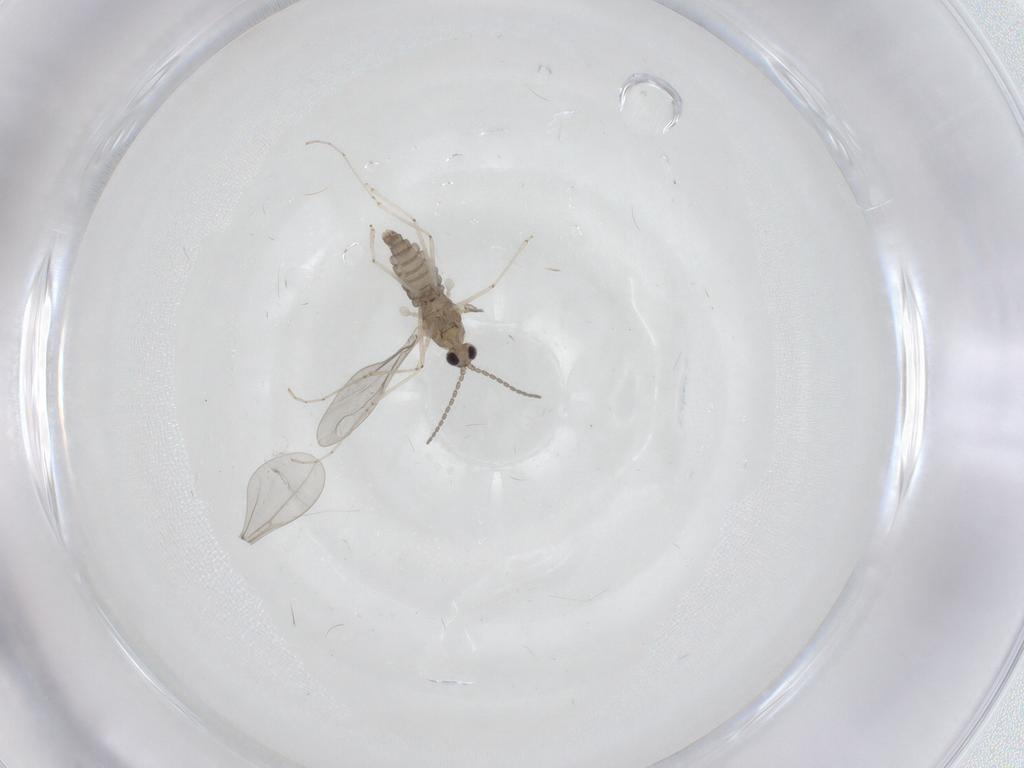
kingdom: Animalia
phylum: Arthropoda
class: Insecta
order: Diptera
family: Cecidomyiidae
